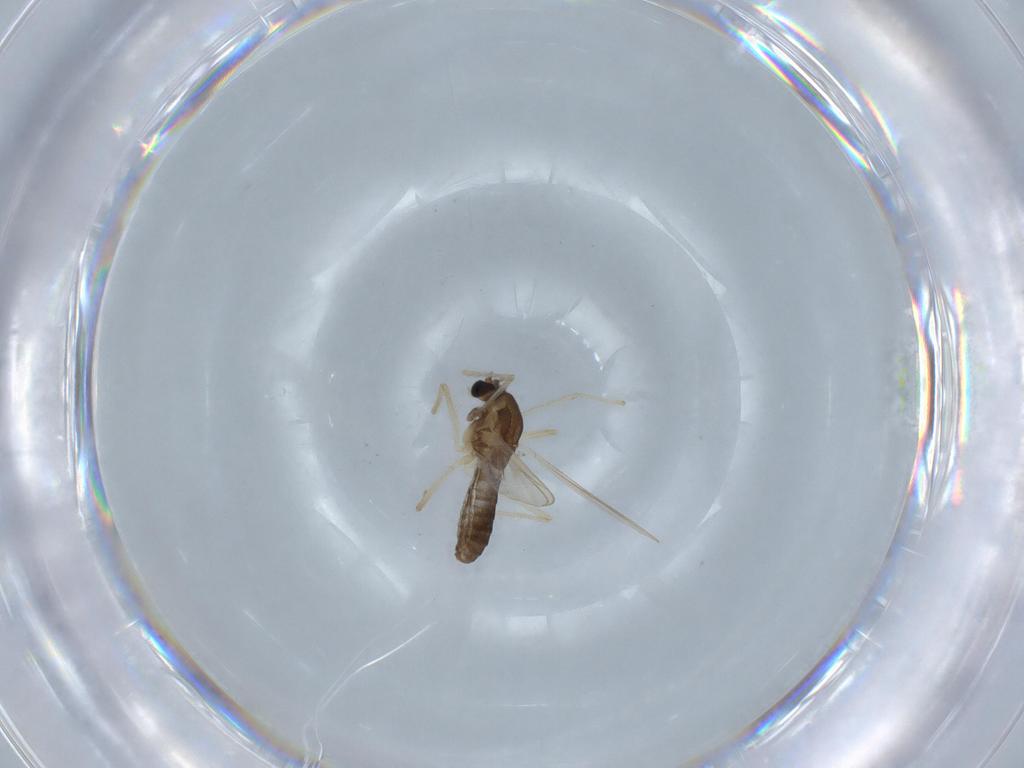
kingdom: Animalia
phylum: Arthropoda
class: Insecta
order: Diptera
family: Chironomidae
